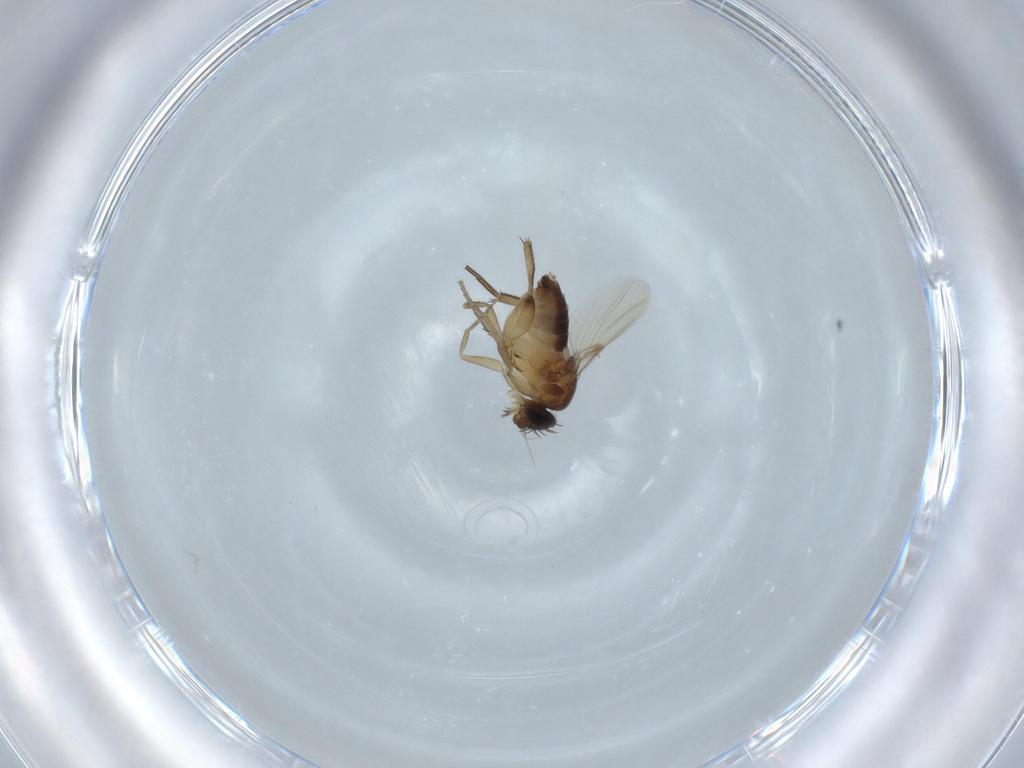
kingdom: Animalia
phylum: Arthropoda
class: Insecta
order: Diptera
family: Phoridae
